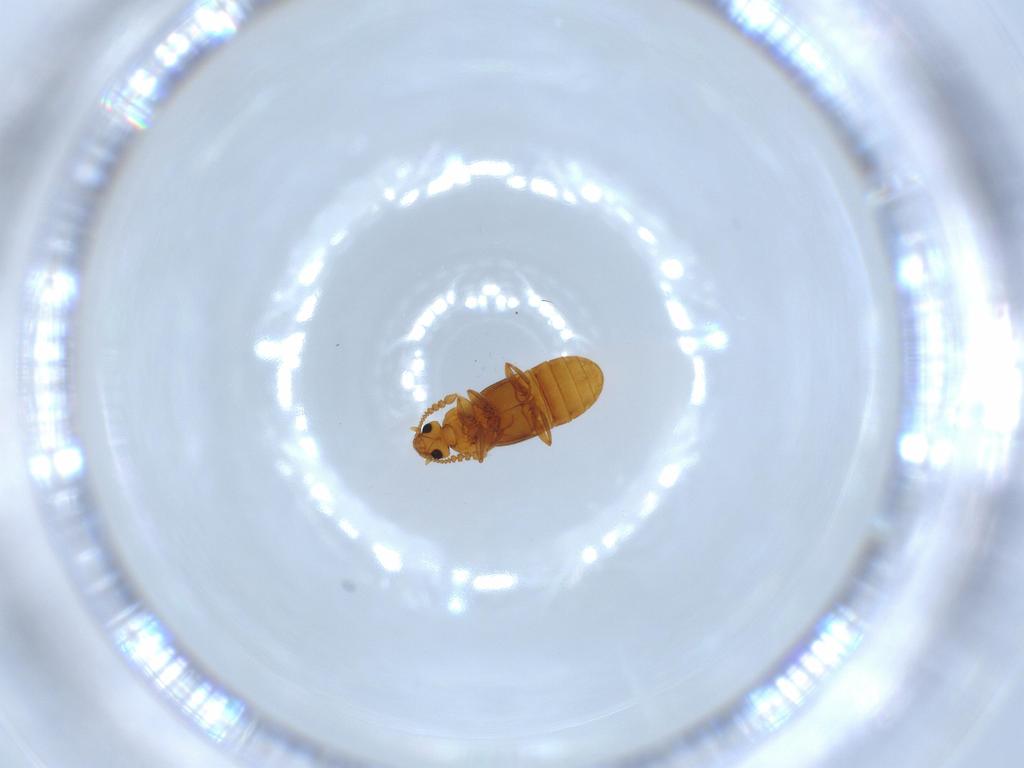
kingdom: Animalia
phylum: Arthropoda
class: Insecta
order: Coleoptera
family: Staphylinidae
